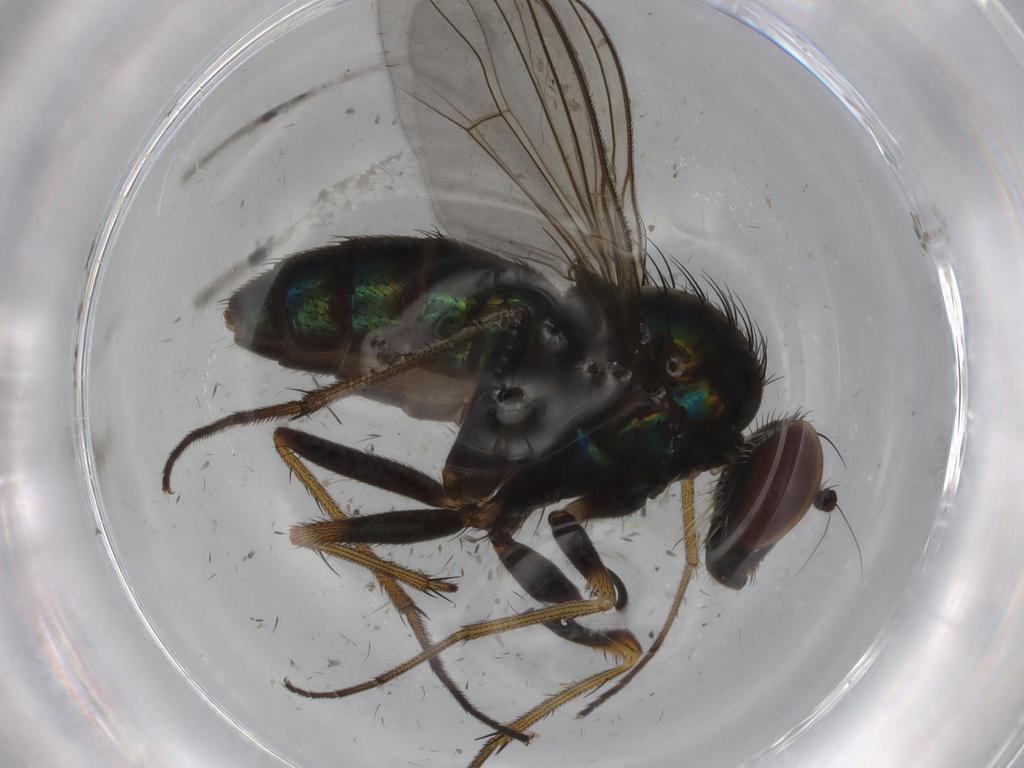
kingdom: Animalia
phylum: Arthropoda
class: Insecta
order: Diptera
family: Dolichopodidae
